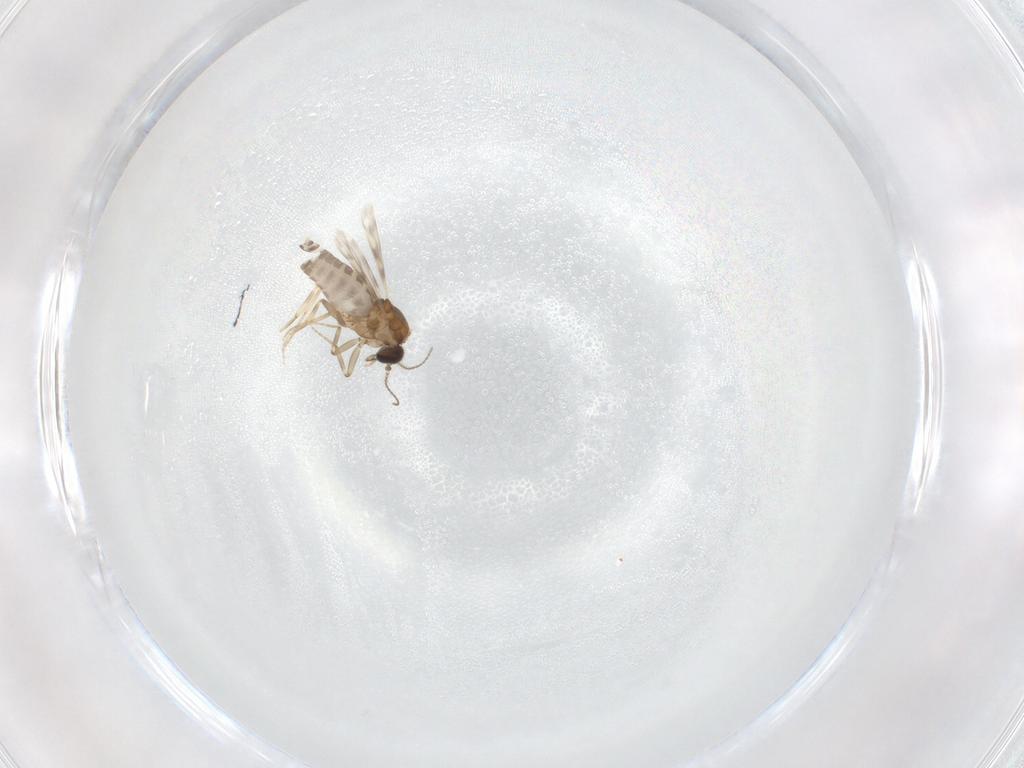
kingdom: Animalia
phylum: Arthropoda
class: Insecta
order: Diptera
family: Ceratopogonidae
